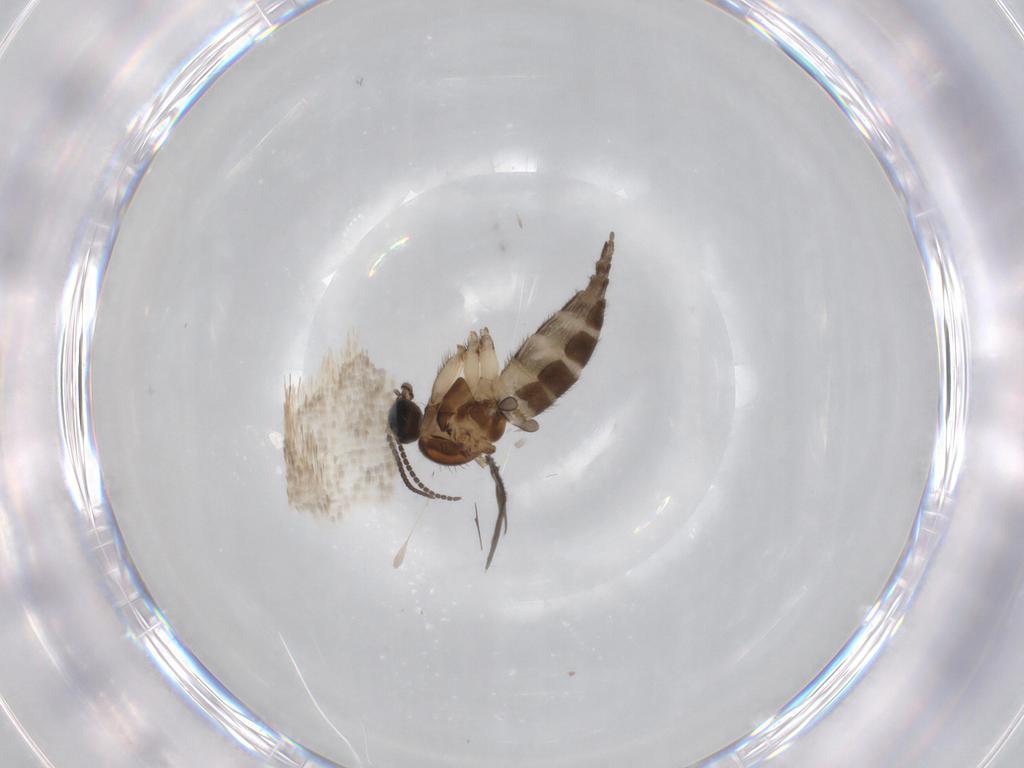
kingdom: Animalia
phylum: Arthropoda
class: Insecta
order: Diptera
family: Sciaridae
